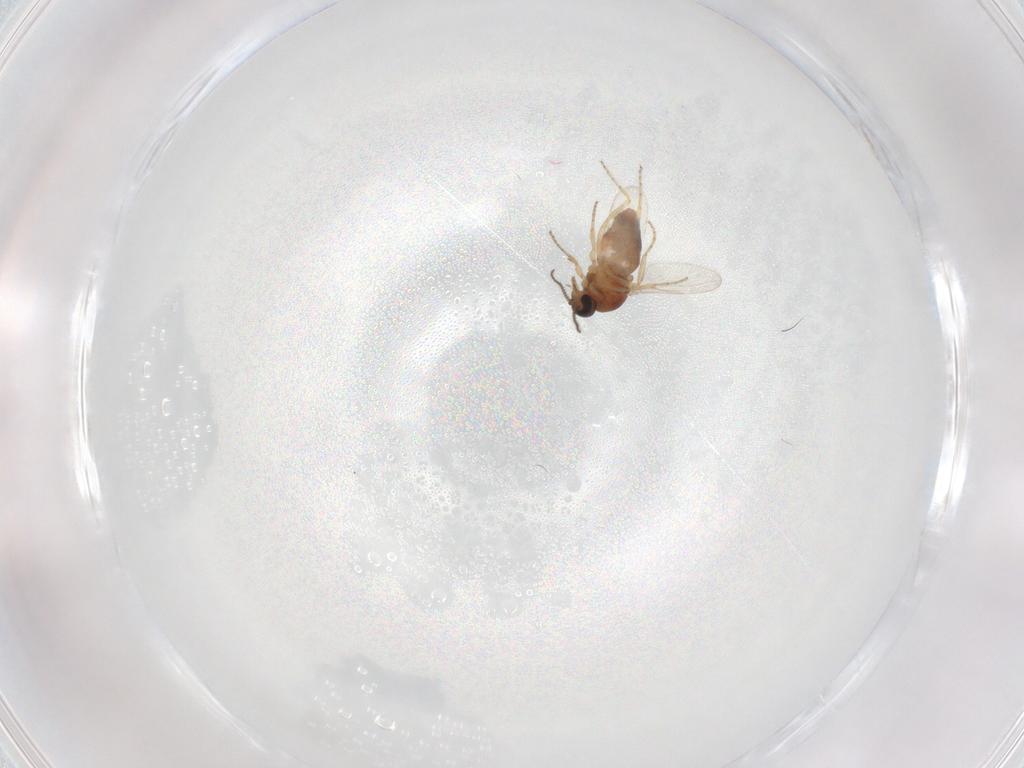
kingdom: Animalia
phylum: Arthropoda
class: Insecta
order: Diptera
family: Ceratopogonidae
